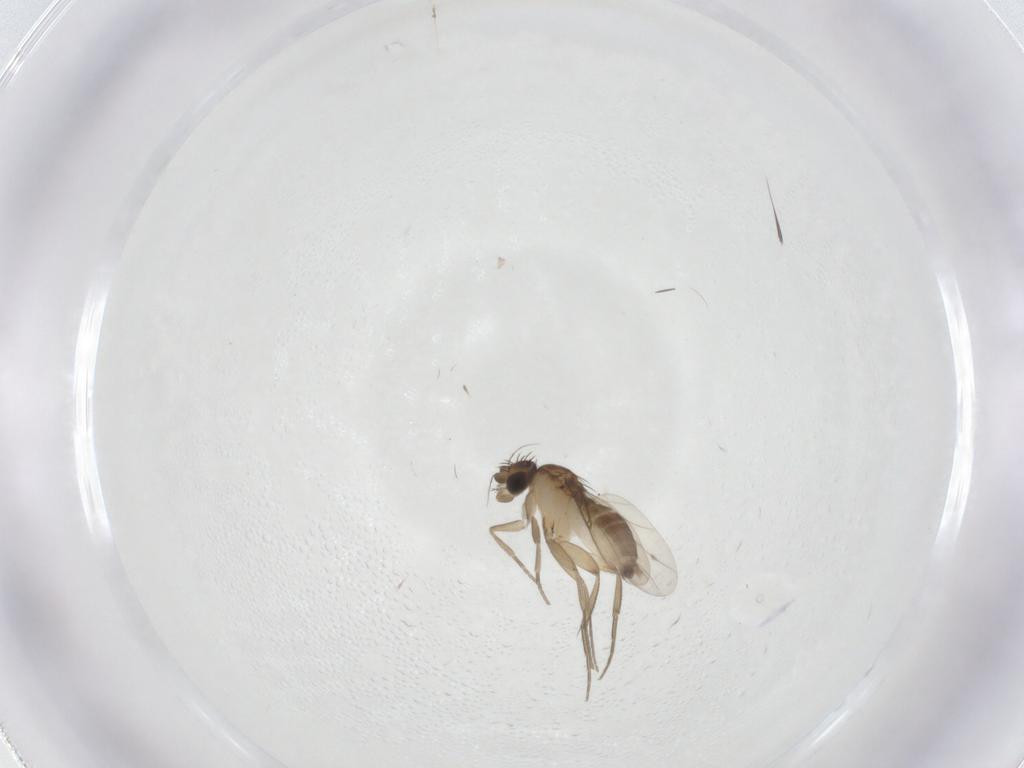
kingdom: Animalia
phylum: Arthropoda
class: Insecta
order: Diptera
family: Phoridae
